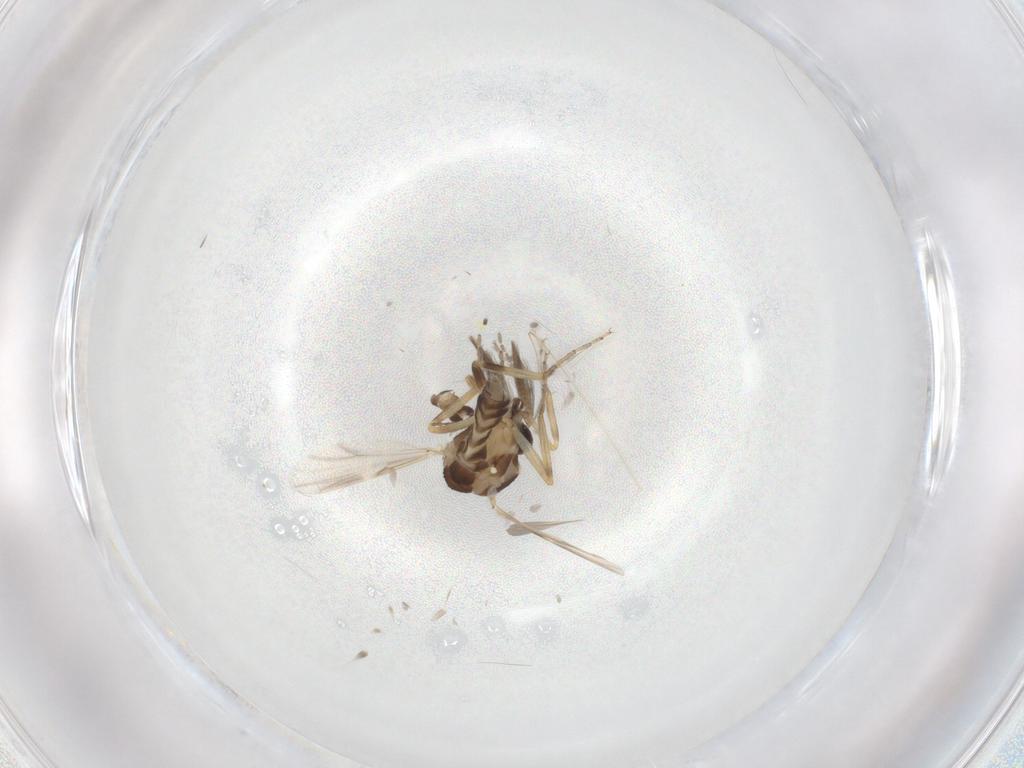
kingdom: Animalia
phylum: Arthropoda
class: Insecta
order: Diptera
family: Ceratopogonidae
